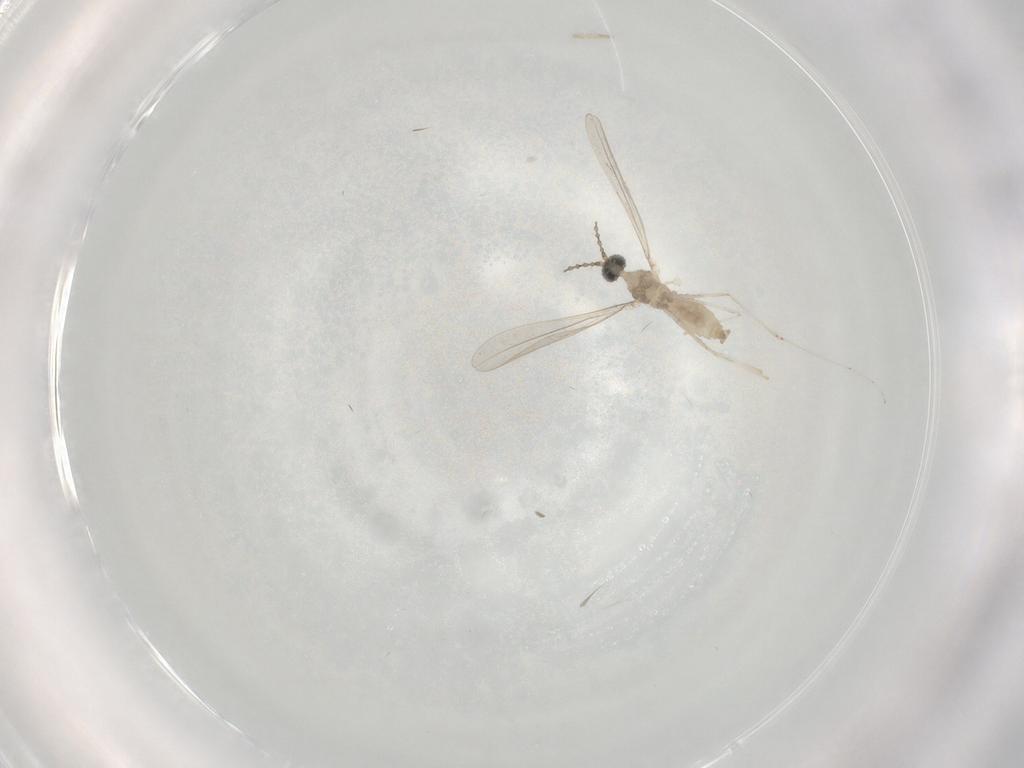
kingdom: Animalia
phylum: Arthropoda
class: Insecta
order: Diptera
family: Cecidomyiidae
